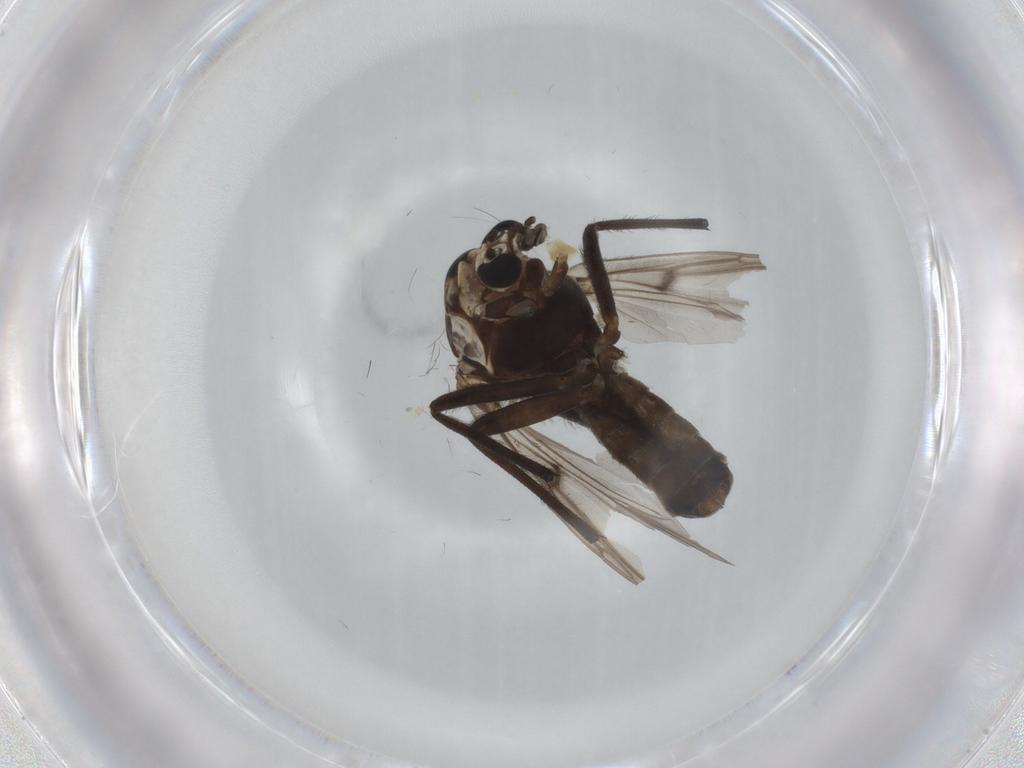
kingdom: Animalia
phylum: Arthropoda
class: Insecta
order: Diptera
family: Chironomidae
